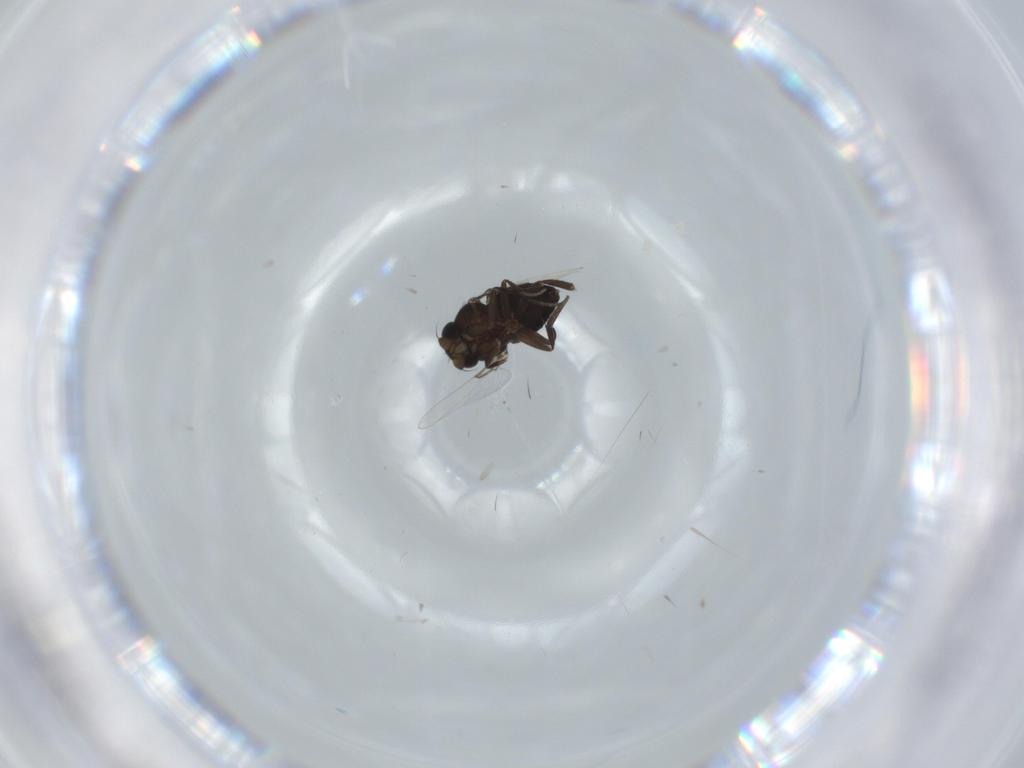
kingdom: Animalia
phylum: Arthropoda
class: Insecta
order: Diptera
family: Phoridae
